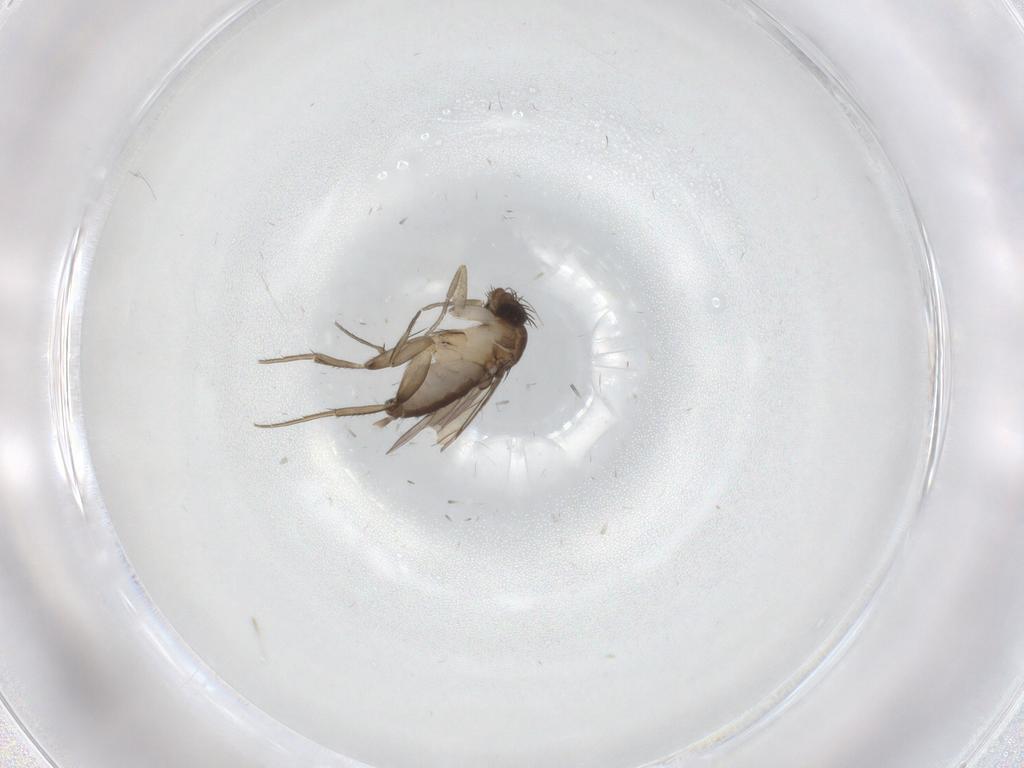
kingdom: Animalia
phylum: Arthropoda
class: Insecta
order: Diptera
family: Phoridae
